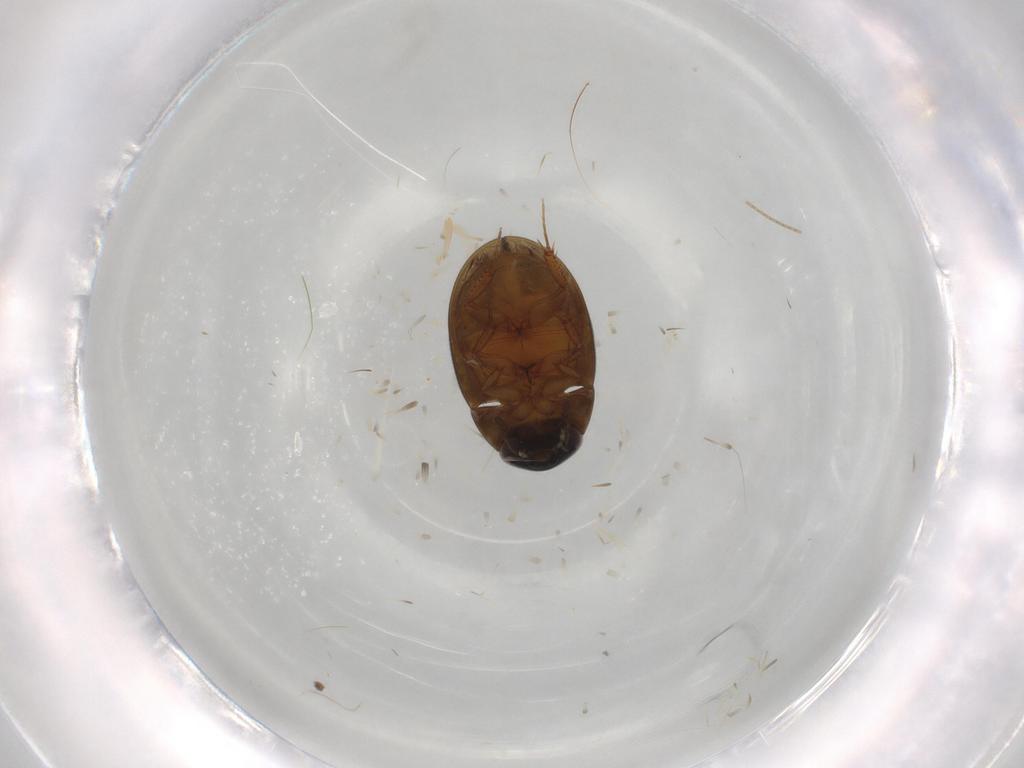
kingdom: Animalia
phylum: Arthropoda
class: Insecta
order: Coleoptera
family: Hydrophilidae
